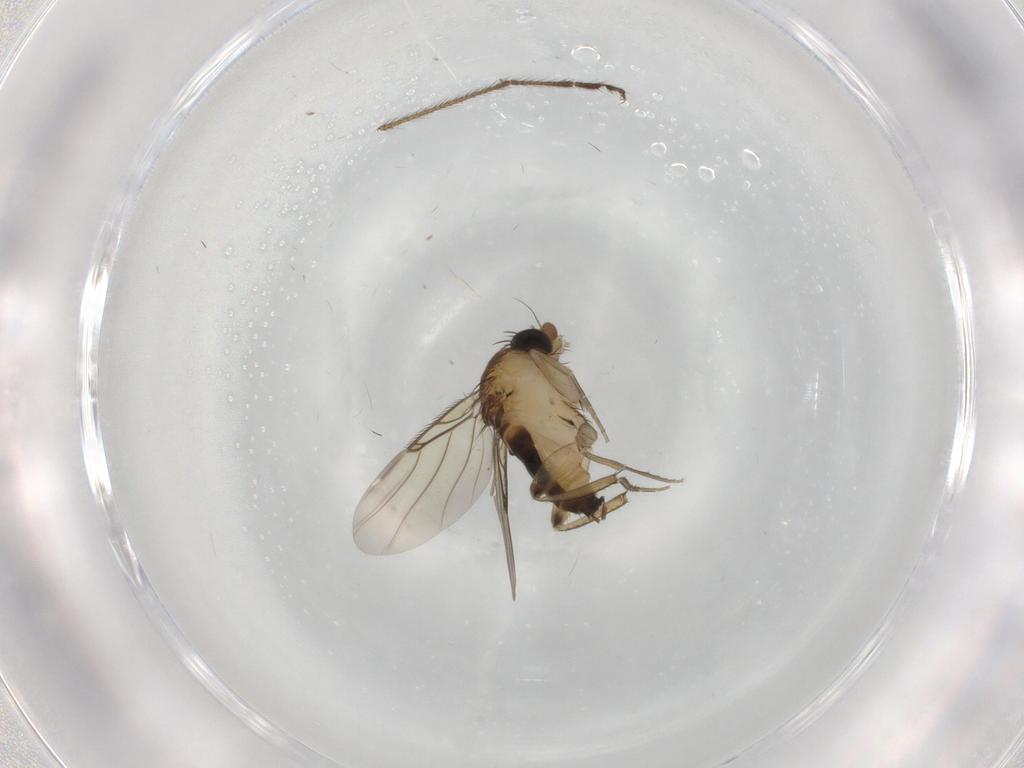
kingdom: Animalia
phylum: Arthropoda
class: Insecta
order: Diptera
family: Phoridae
